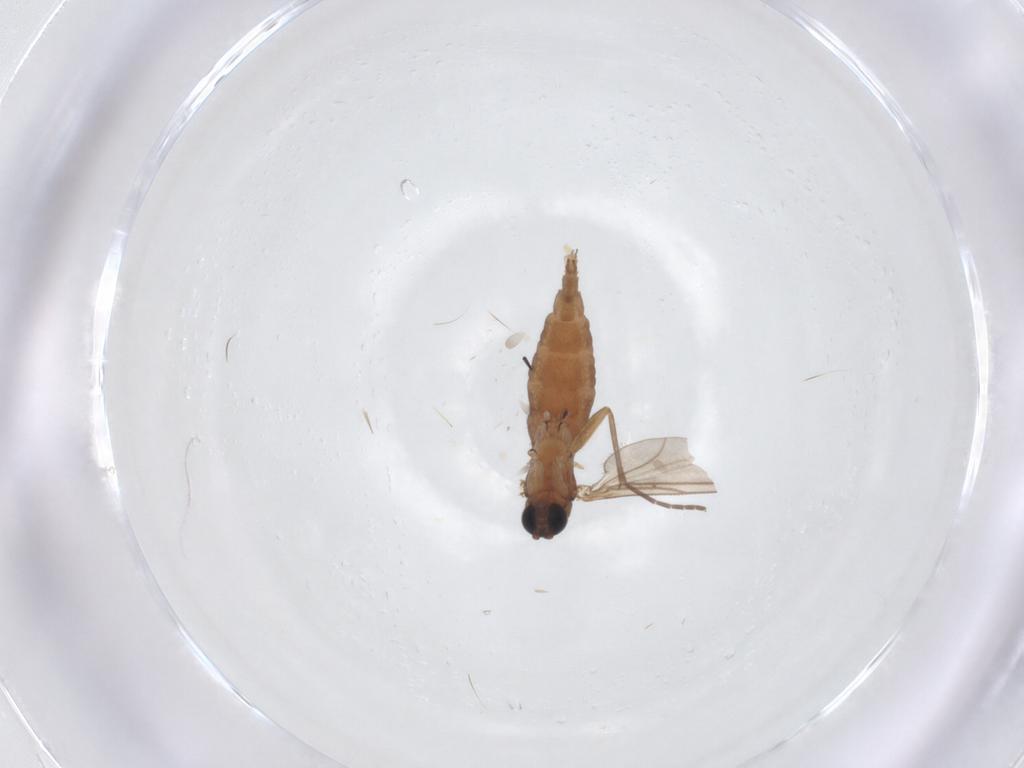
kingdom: Animalia
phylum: Arthropoda
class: Insecta
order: Diptera
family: Sciaridae
